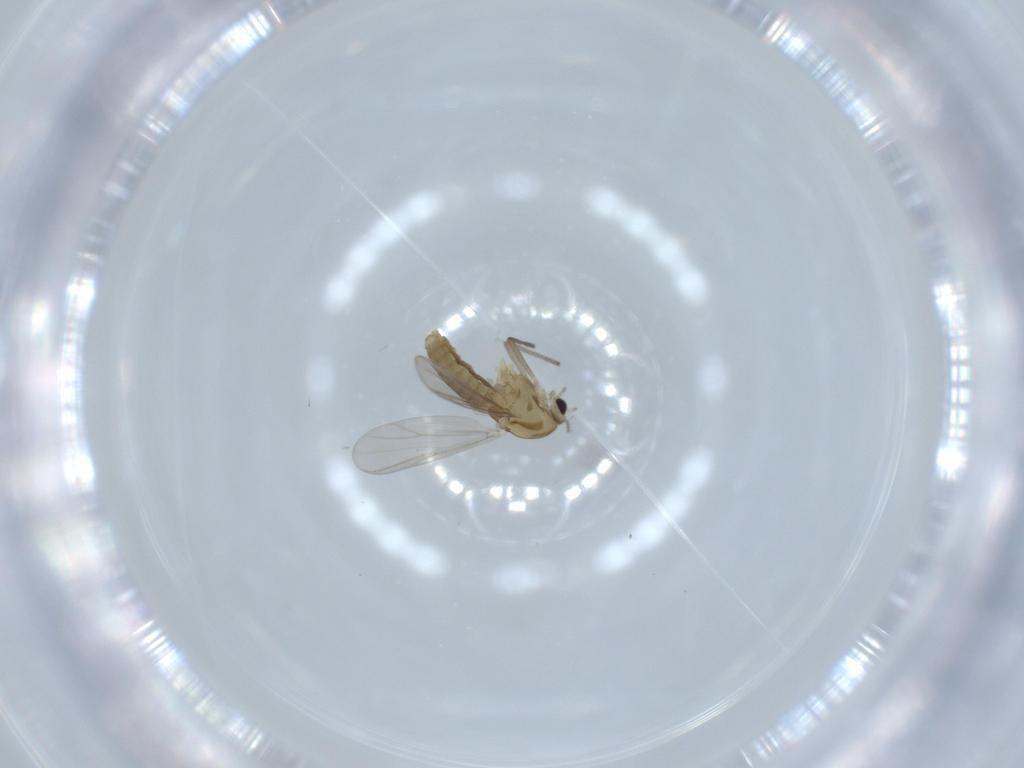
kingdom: Animalia
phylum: Arthropoda
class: Insecta
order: Diptera
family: Chironomidae
